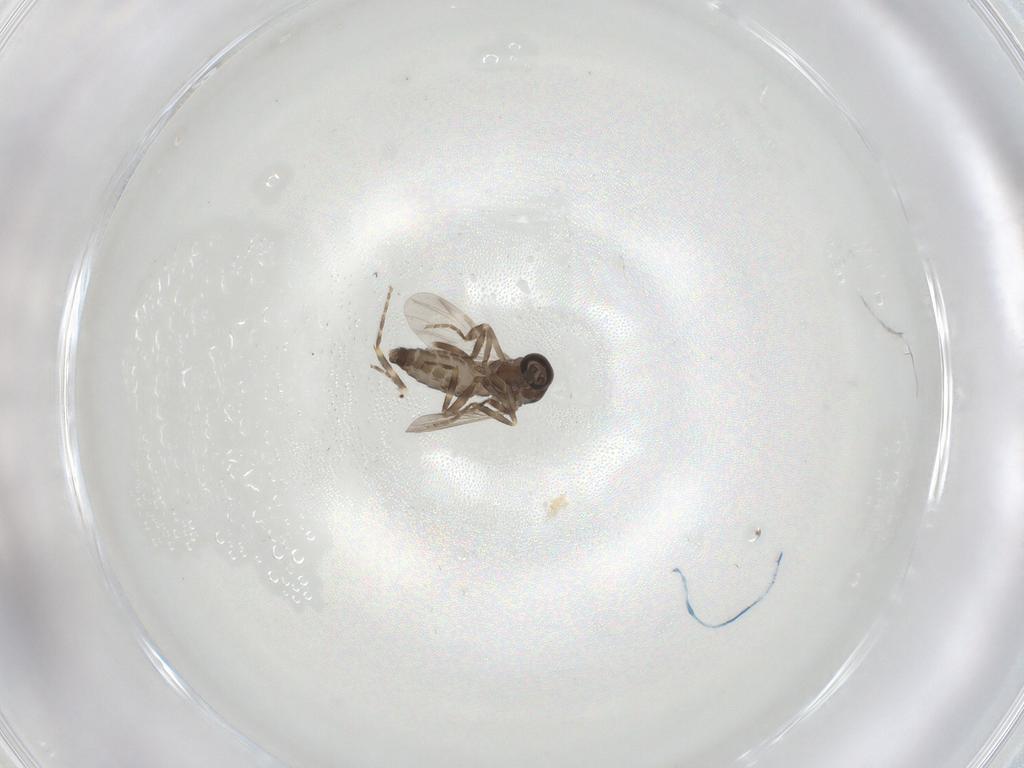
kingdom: Animalia
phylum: Arthropoda
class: Insecta
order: Diptera
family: Ceratopogonidae
